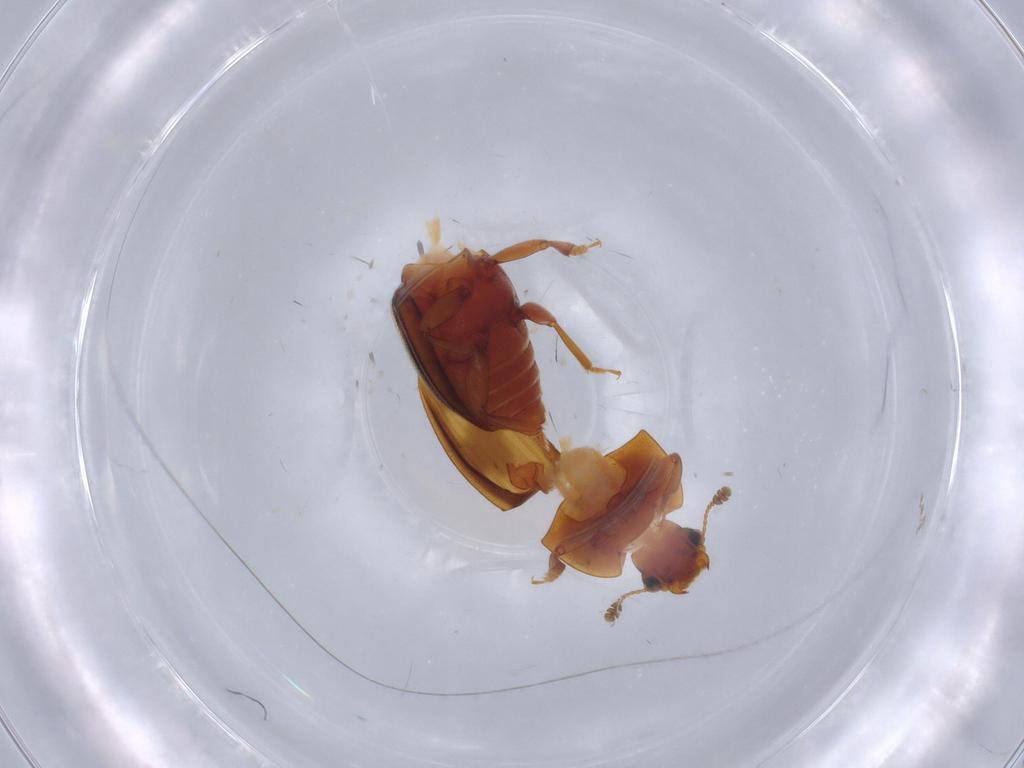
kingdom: Animalia
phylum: Arthropoda
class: Insecta
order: Coleoptera
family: Nitidulidae
